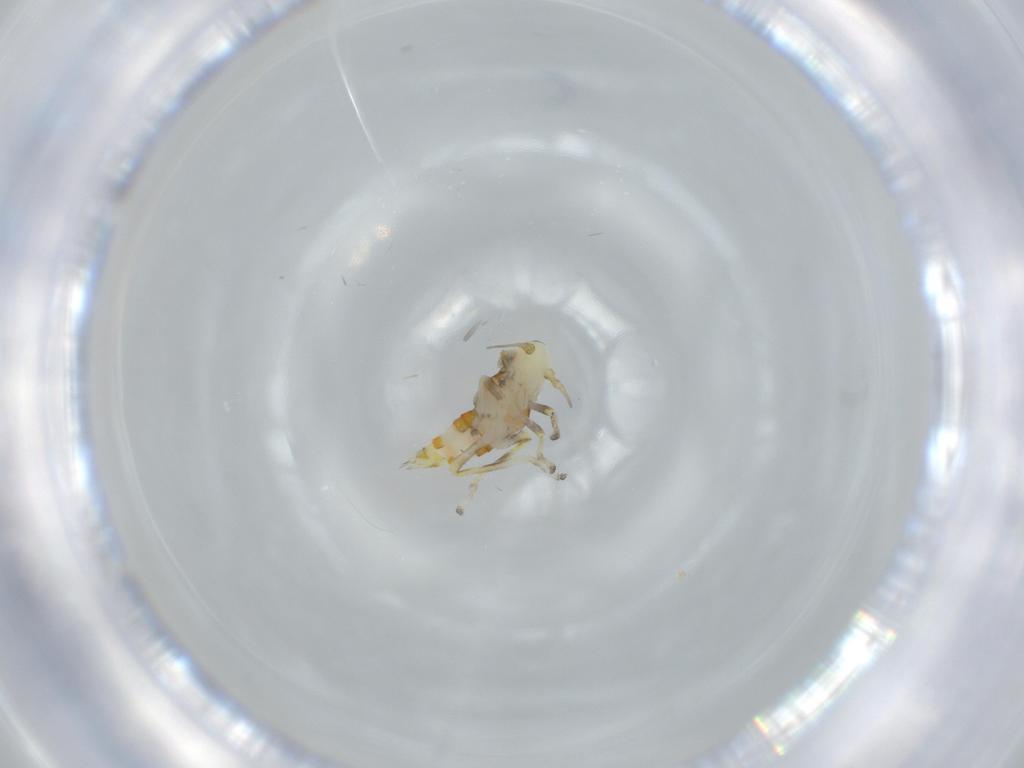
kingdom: Animalia
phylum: Arthropoda
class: Insecta
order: Hemiptera
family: Cicadellidae
